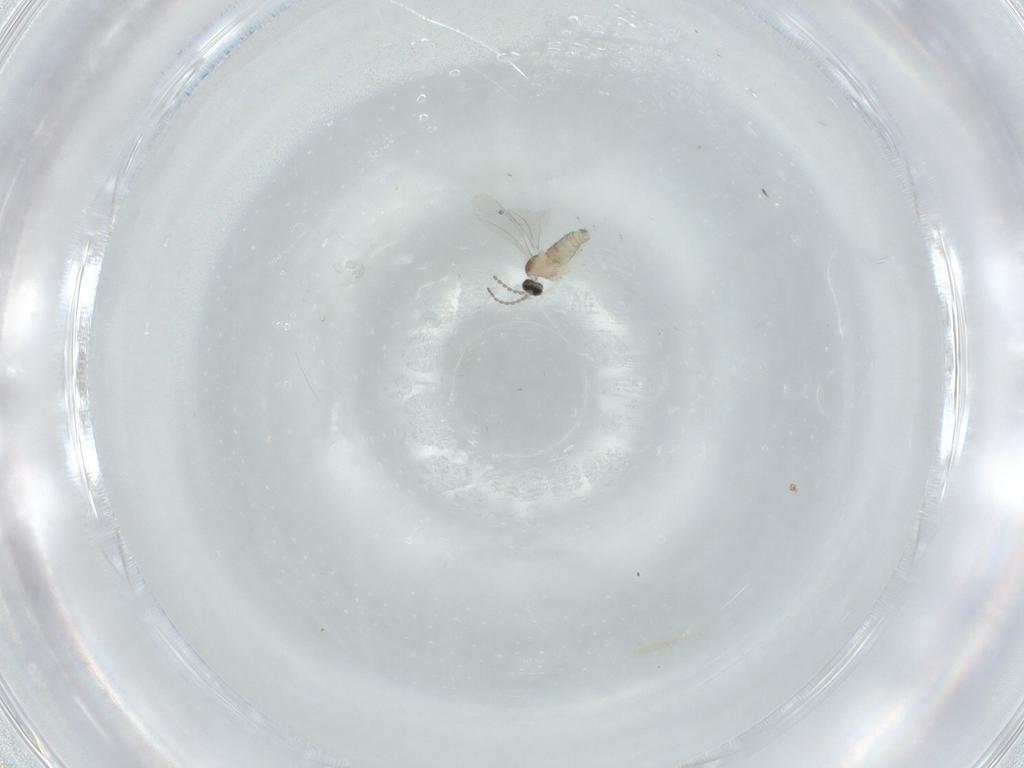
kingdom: Animalia
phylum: Arthropoda
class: Insecta
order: Diptera
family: Cecidomyiidae
